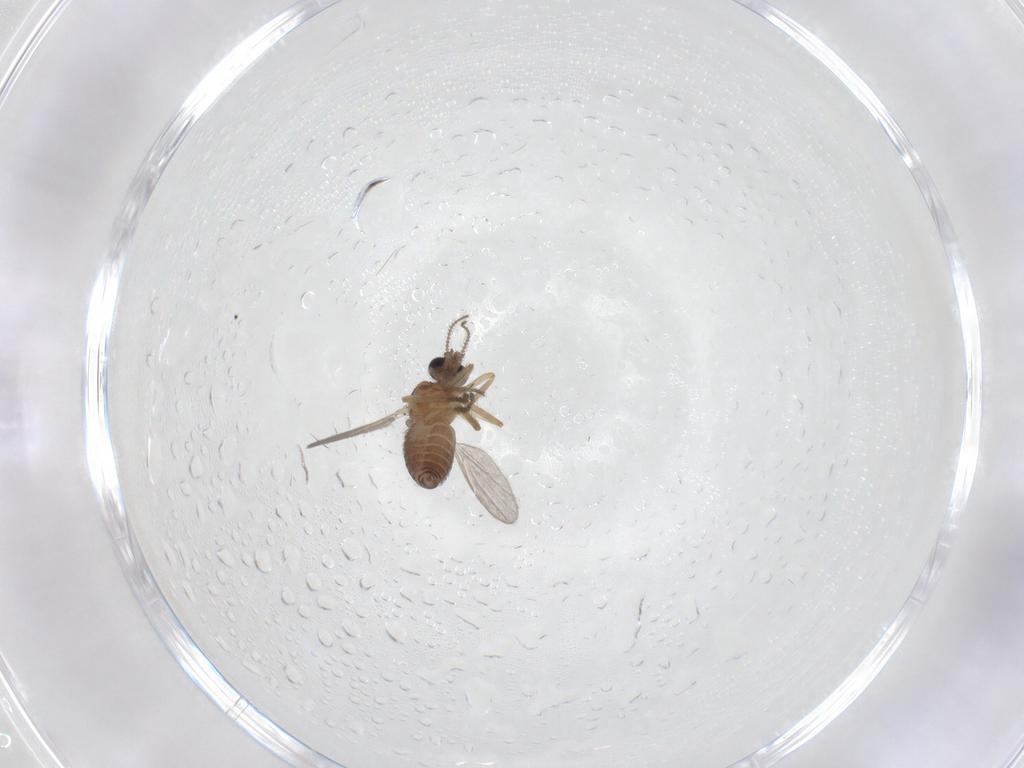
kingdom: Animalia
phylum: Arthropoda
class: Insecta
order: Diptera
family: Ceratopogonidae
